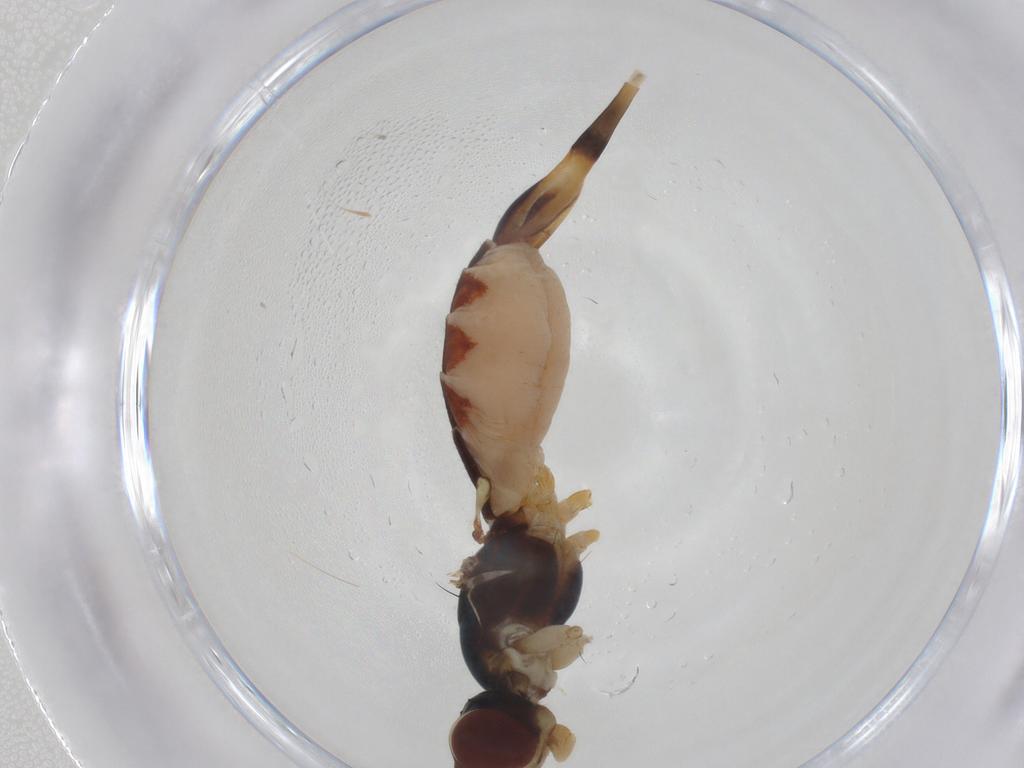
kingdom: Animalia
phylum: Arthropoda
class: Insecta
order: Diptera
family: Micropezidae
